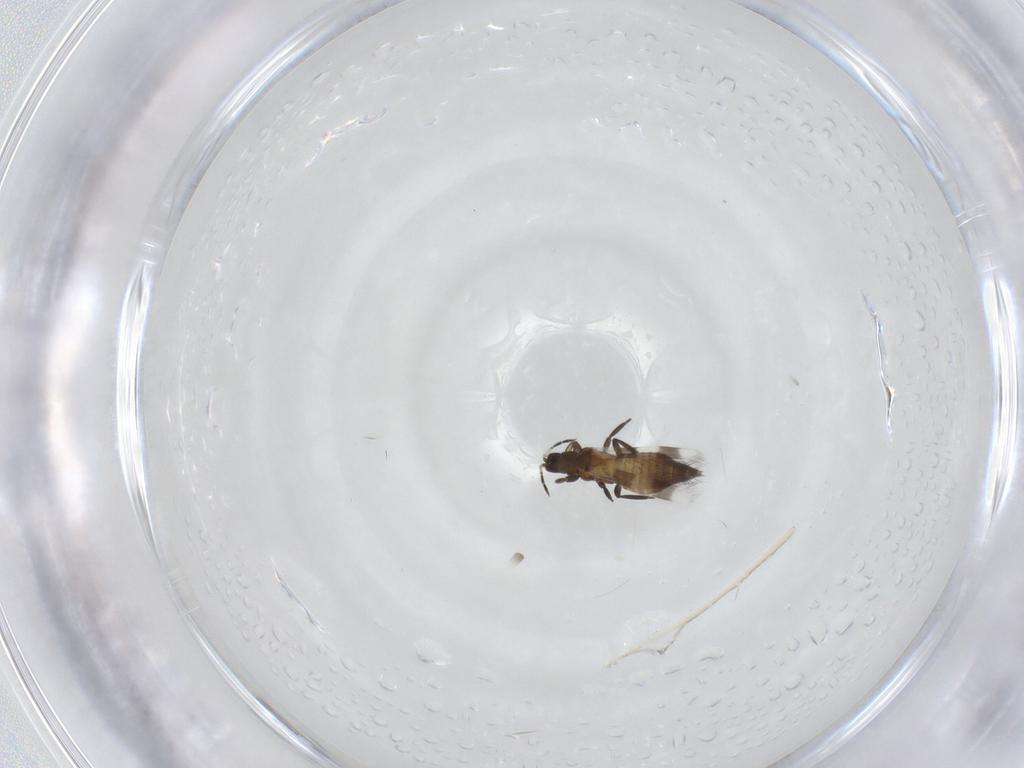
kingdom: Animalia
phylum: Arthropoda
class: Insecta
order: Thysanoptera
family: Aeolothripidae
